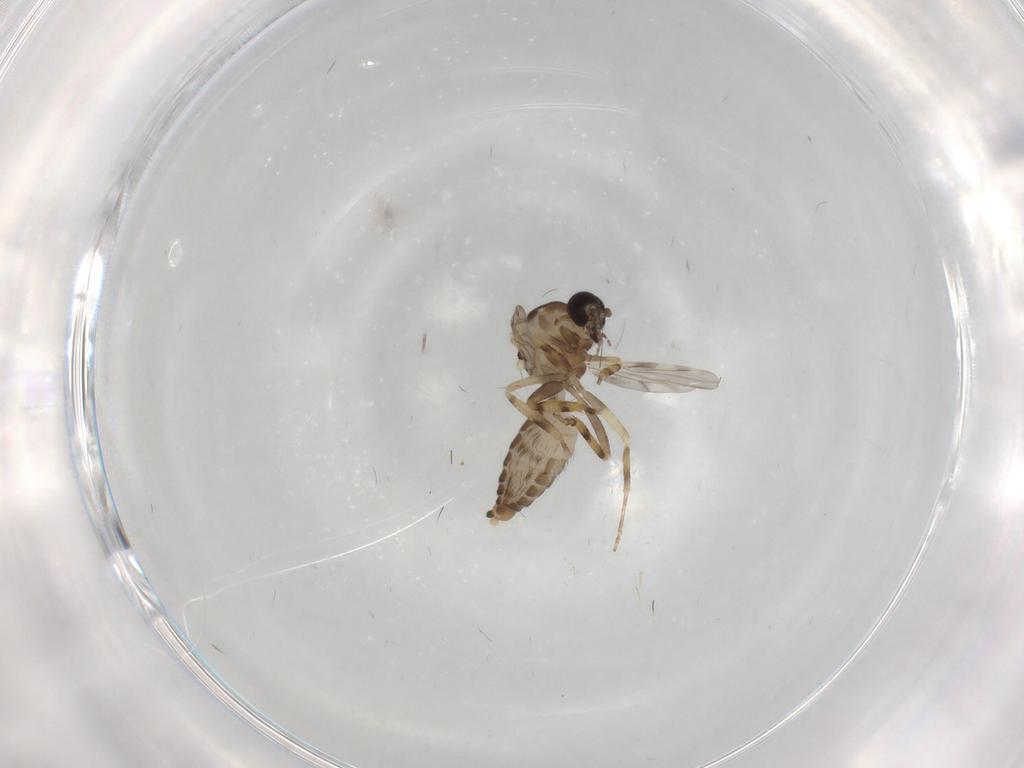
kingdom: Animalia
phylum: Arthropoda
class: Insecta
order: Diptera
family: Ceratopogonidae
